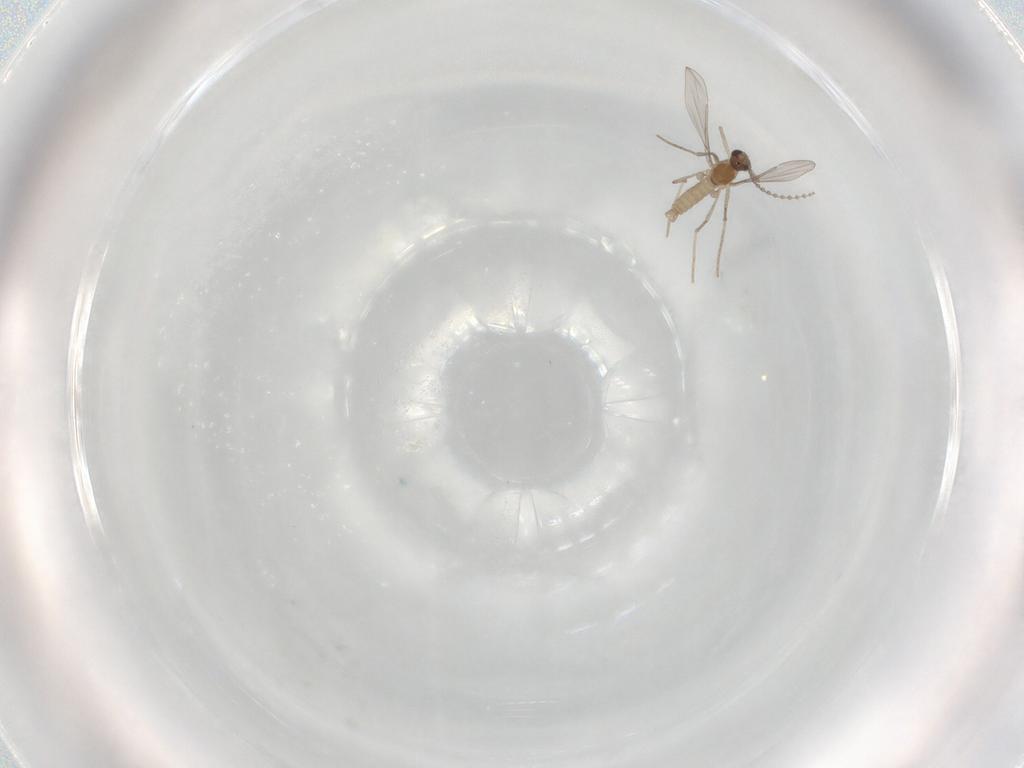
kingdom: Animalia
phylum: Arthropoda
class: Insecta
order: Diptera
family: Cecidomyiidae
